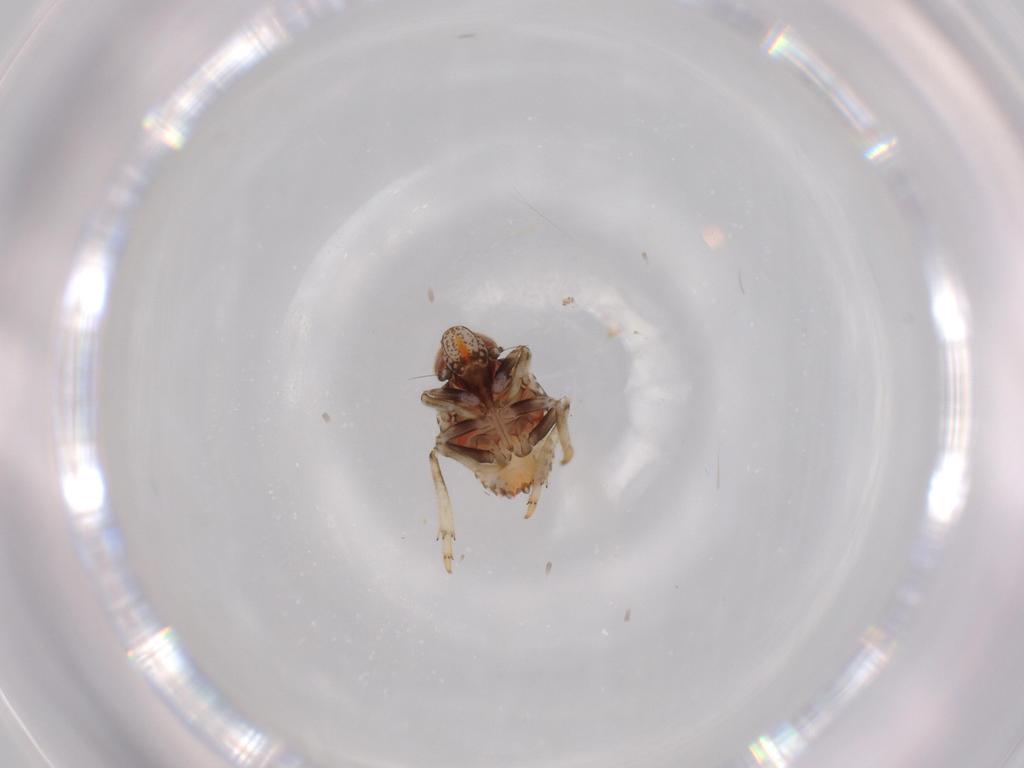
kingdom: Animalia
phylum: Arthropoda
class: Insecta
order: Hemiptera
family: Issidae
